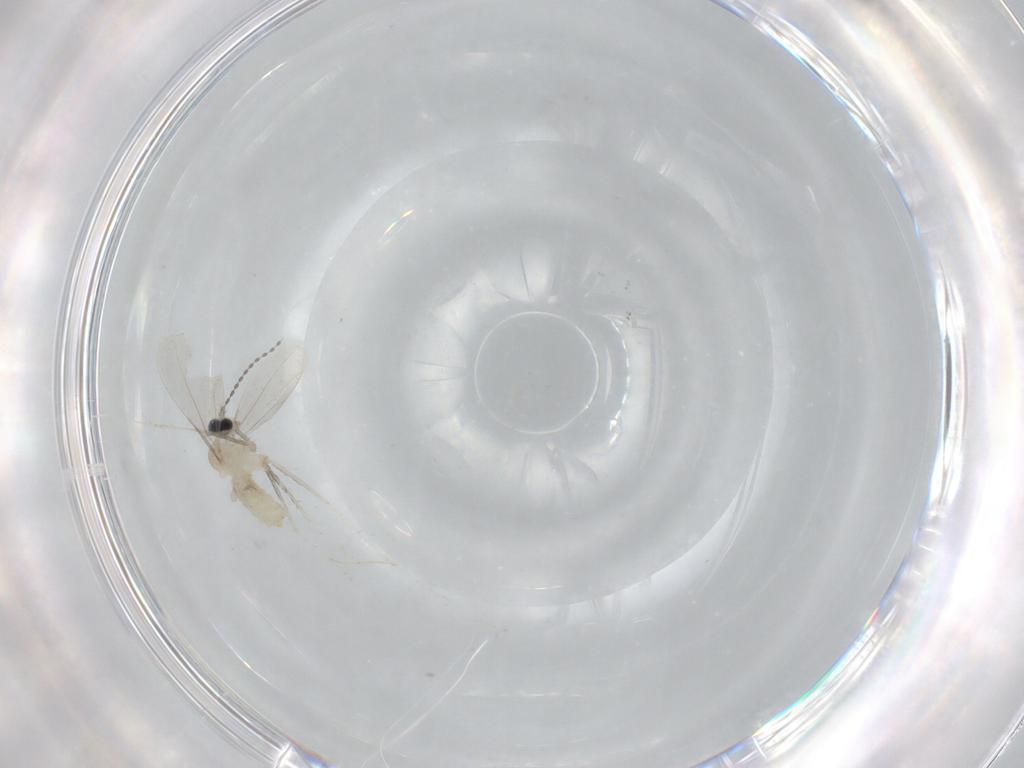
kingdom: Animalia
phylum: Arthropoda
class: Insecta
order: Diptera
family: Cecidomyiidae
